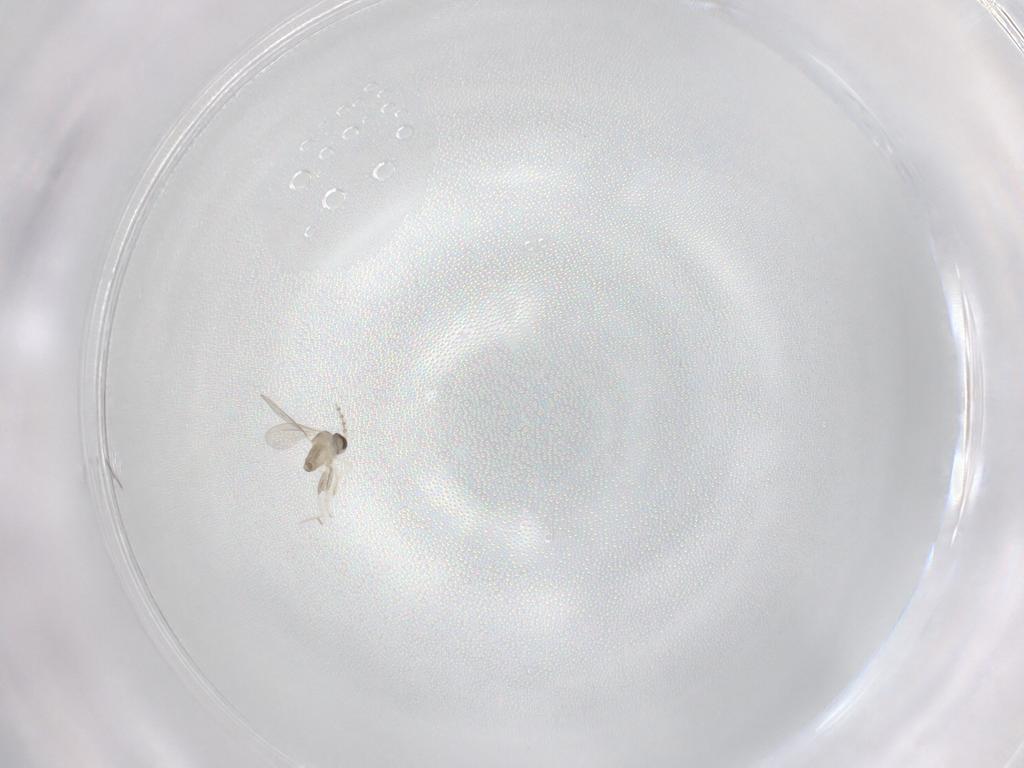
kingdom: Animalia
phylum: Arthropoda
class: Insecta
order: Diptera
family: Cecidomyiidae
